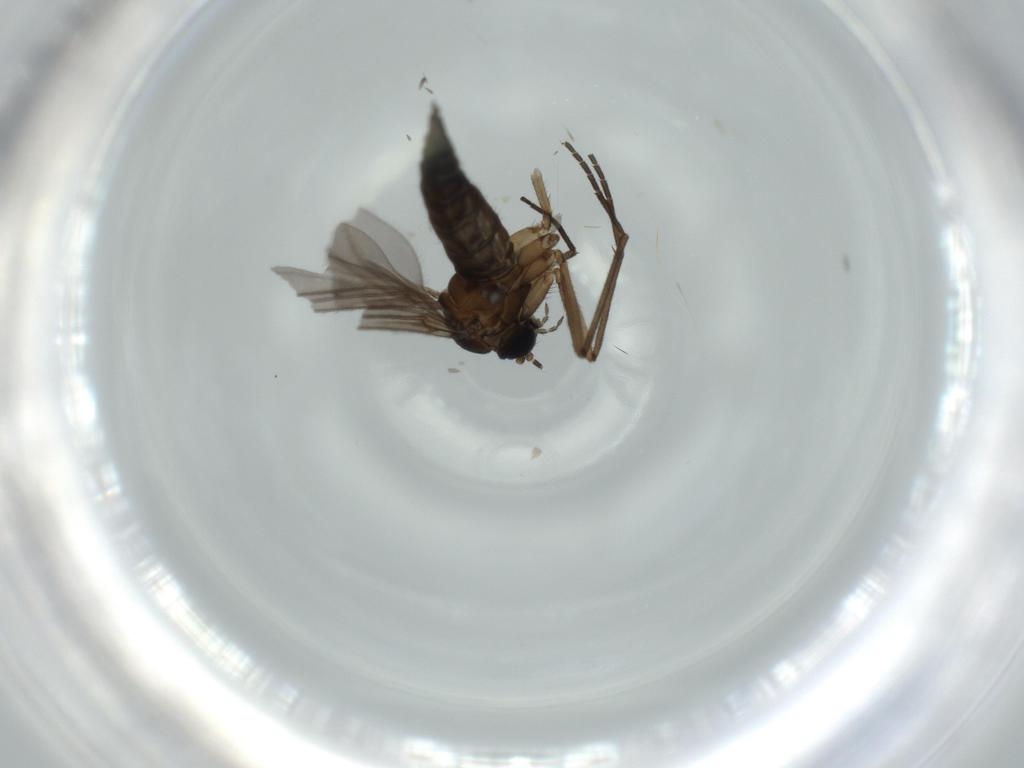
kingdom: Animalia
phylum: Arthropoda
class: Insecta
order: Diptera
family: Sciaridae
